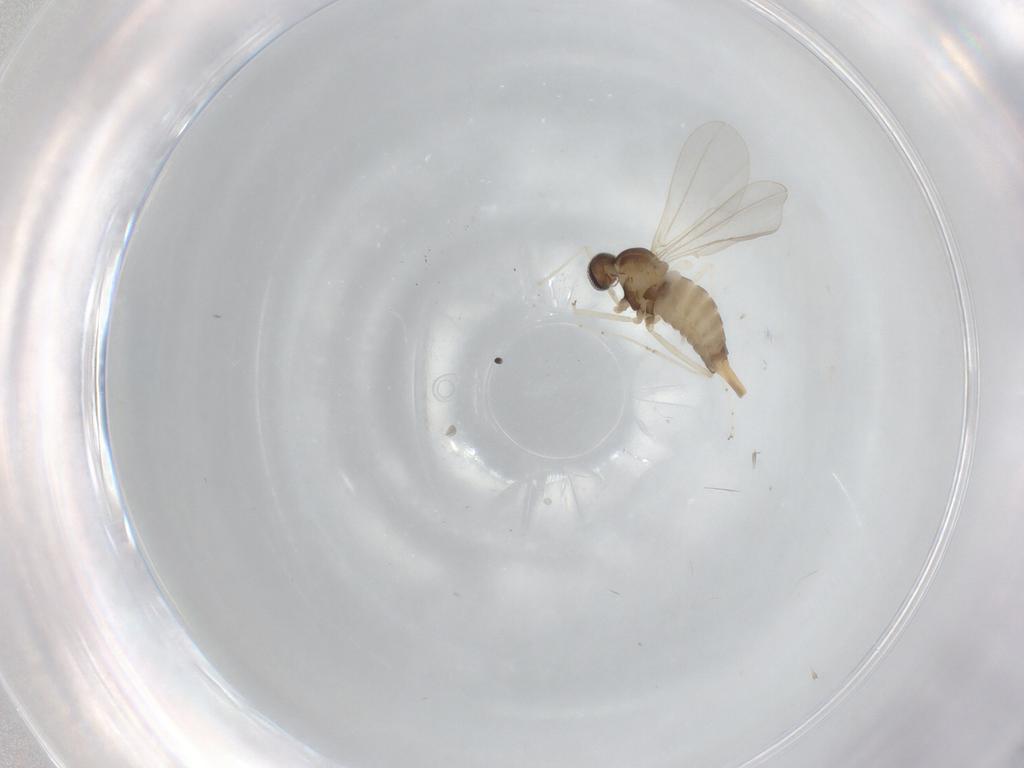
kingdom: Animalia
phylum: Arthropoda
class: Insecta
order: Diptera
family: Cecidomyiidae
